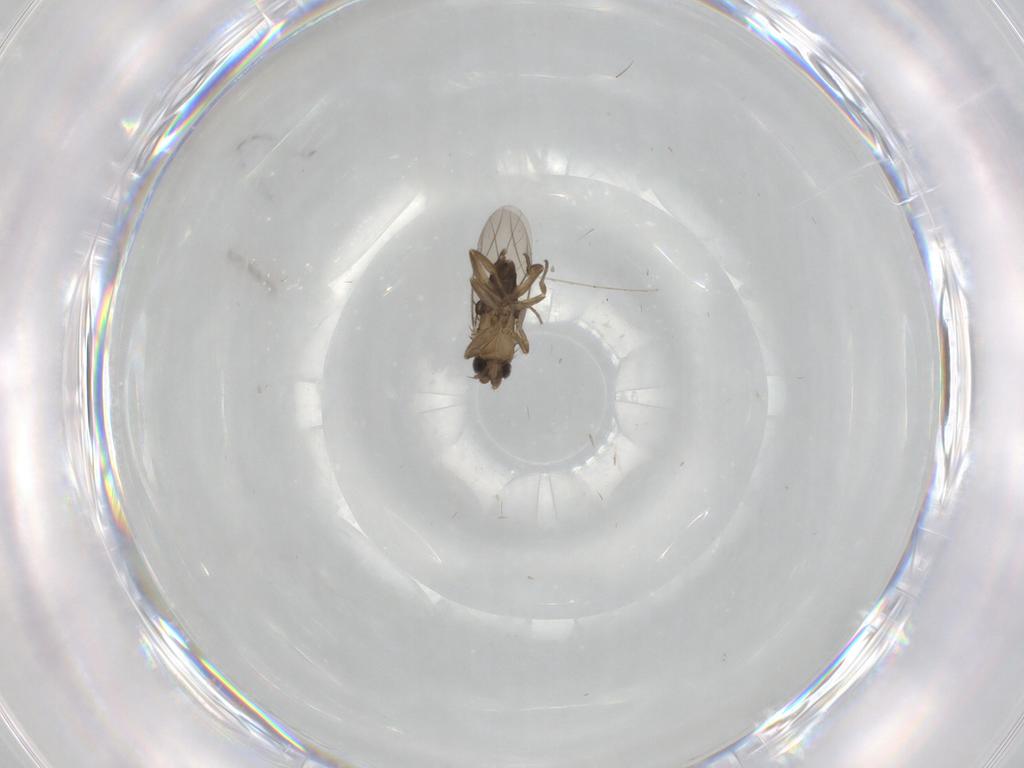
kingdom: Animalia
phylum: Arthropoda
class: Insecta
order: Diptera
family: Phoridae
